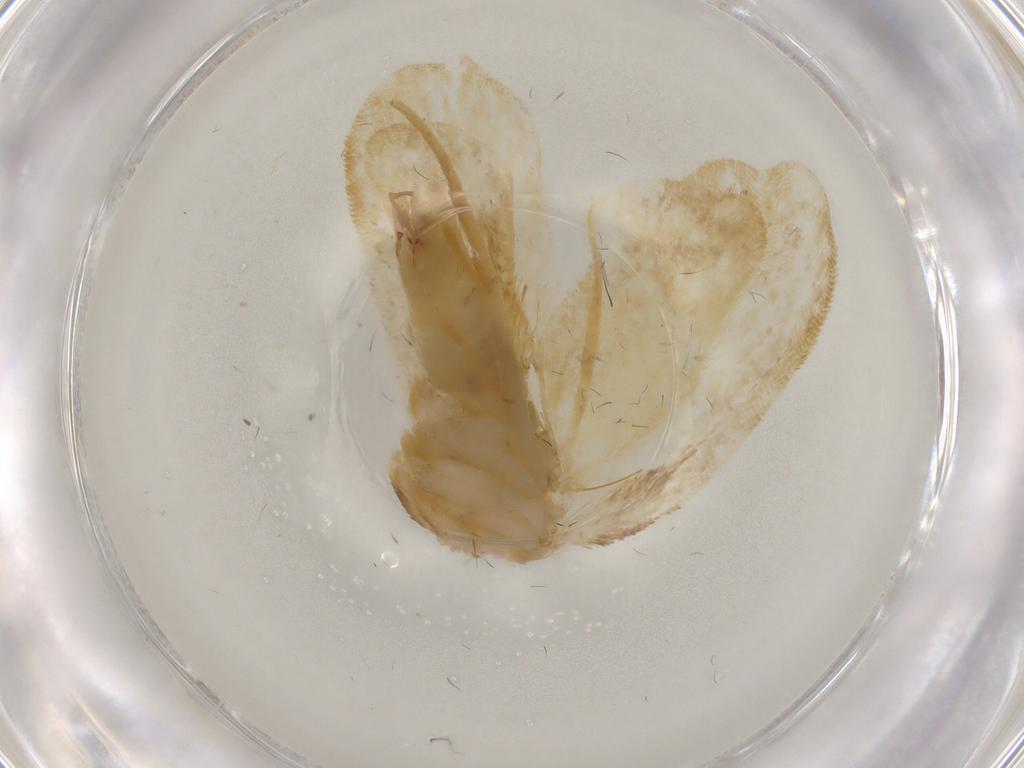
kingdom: Animalia
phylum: Arthropoda
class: Insecta
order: Lepidoptera
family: Psychidae
